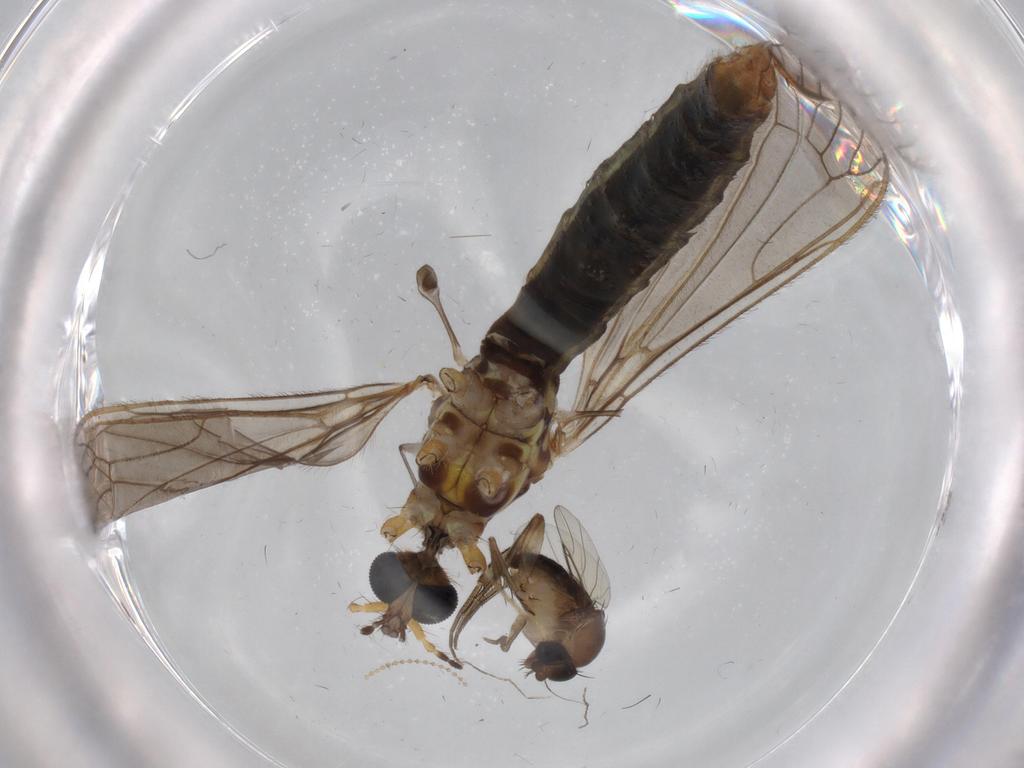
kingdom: Animalia
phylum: Arthropoda
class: Insecta
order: Diptera
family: Limoniidae
